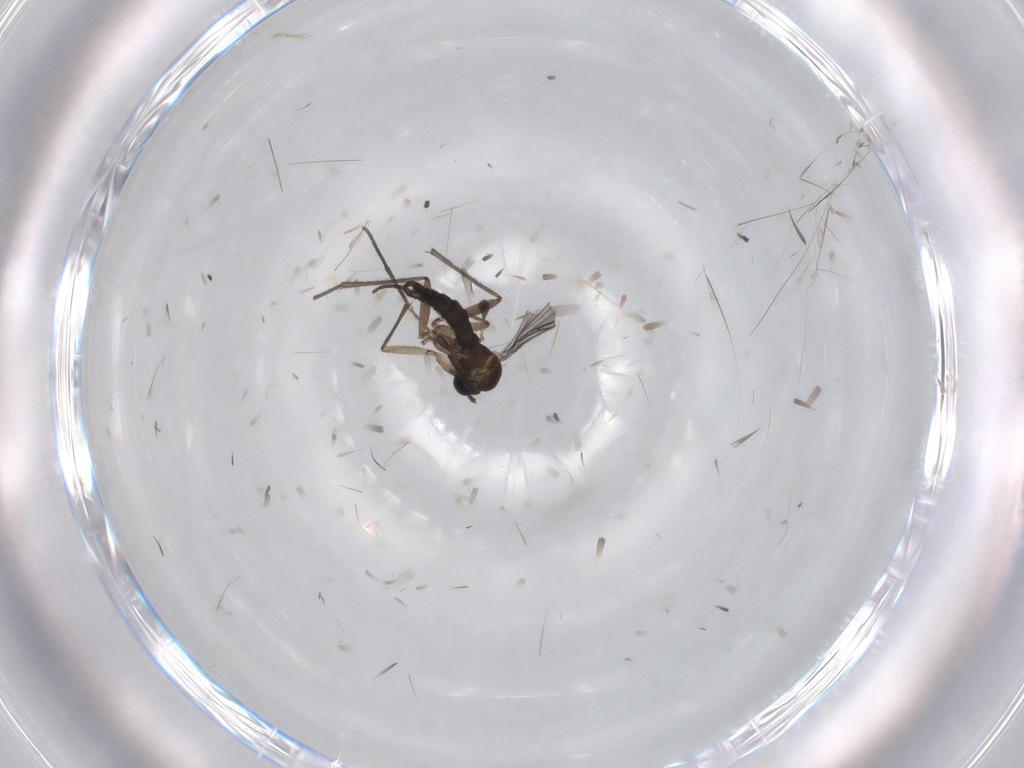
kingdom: Animalia
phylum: Arthropoda
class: Insecta
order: Diptera
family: Sciaridae
